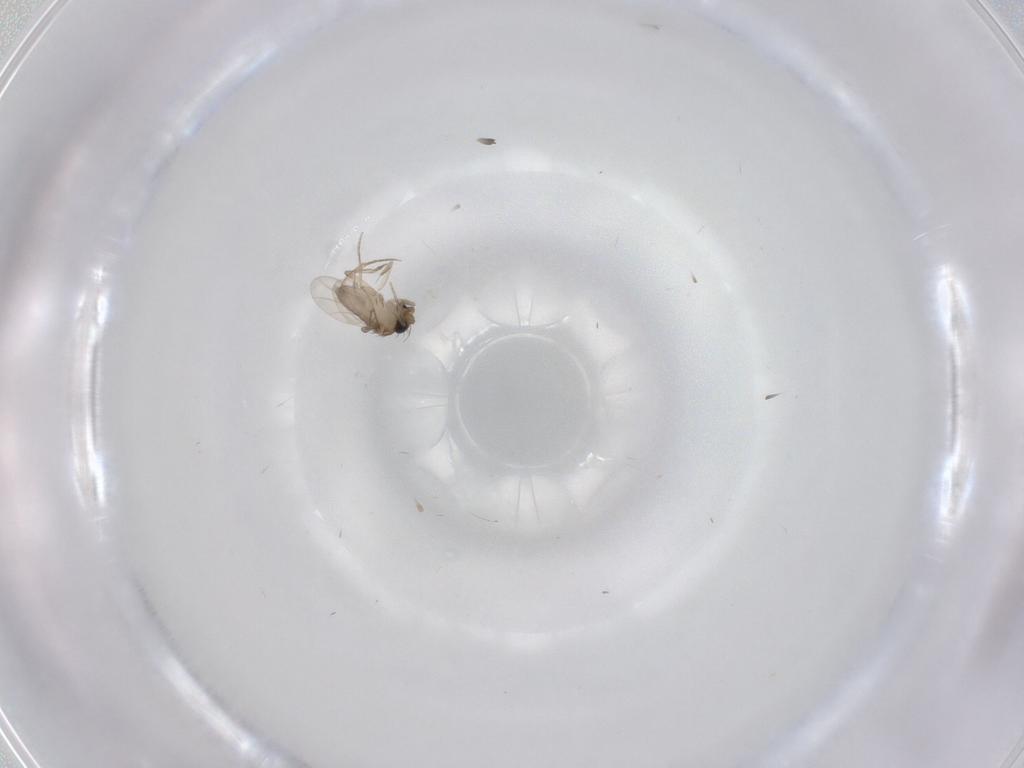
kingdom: Animalia
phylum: Arthropoda
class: Insecta
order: Diptera
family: Phoridae
